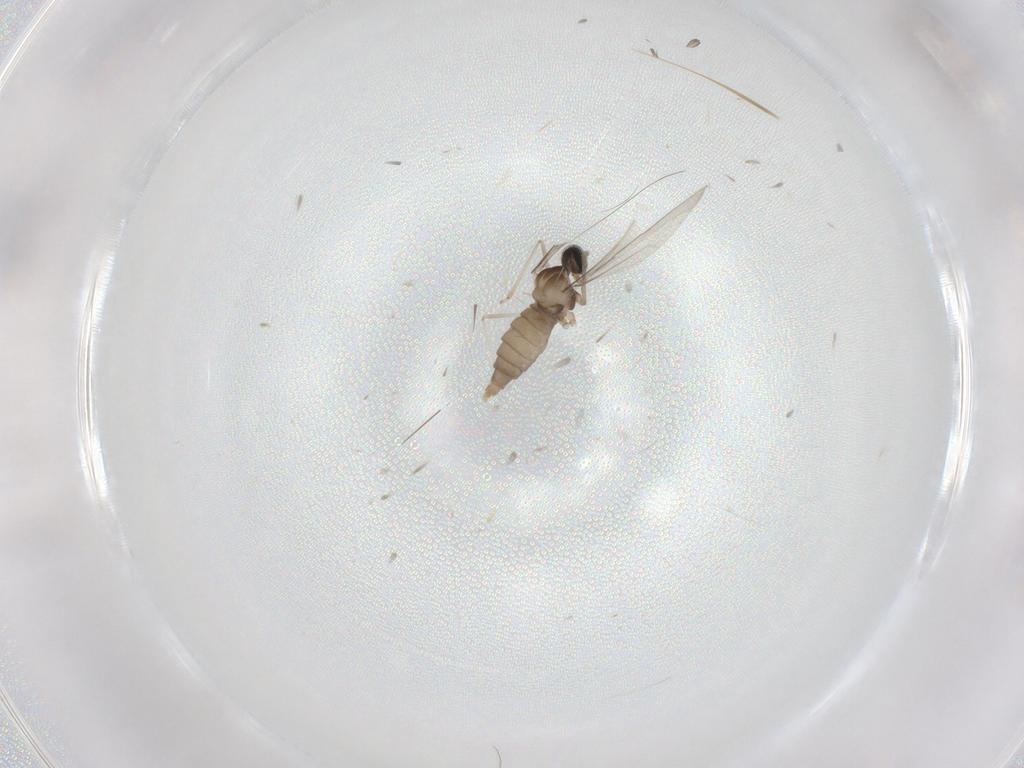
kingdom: Animalia
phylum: Arthropoda
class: Insecta
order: Diptera
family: Cecidomyiidae
